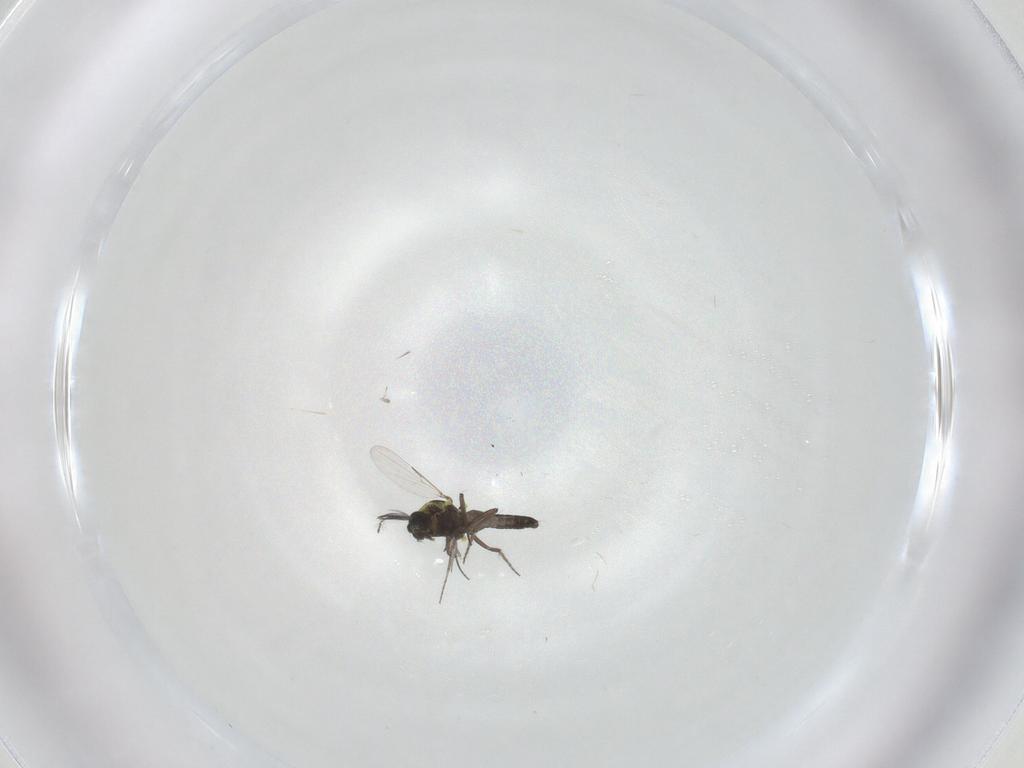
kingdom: Animalia
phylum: Arthropoda
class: Insecta
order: Diptera
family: Ceratopogonidae
